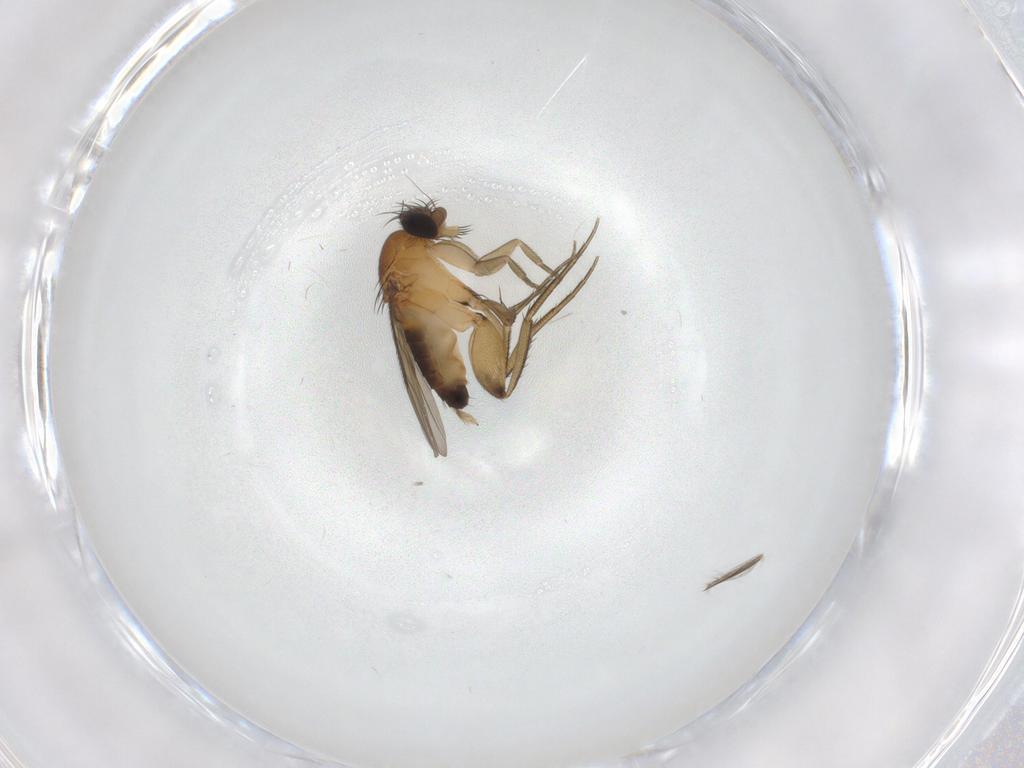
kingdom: Animalia
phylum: Arthropoda
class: Insecta
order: Diptera
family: Phoridae
